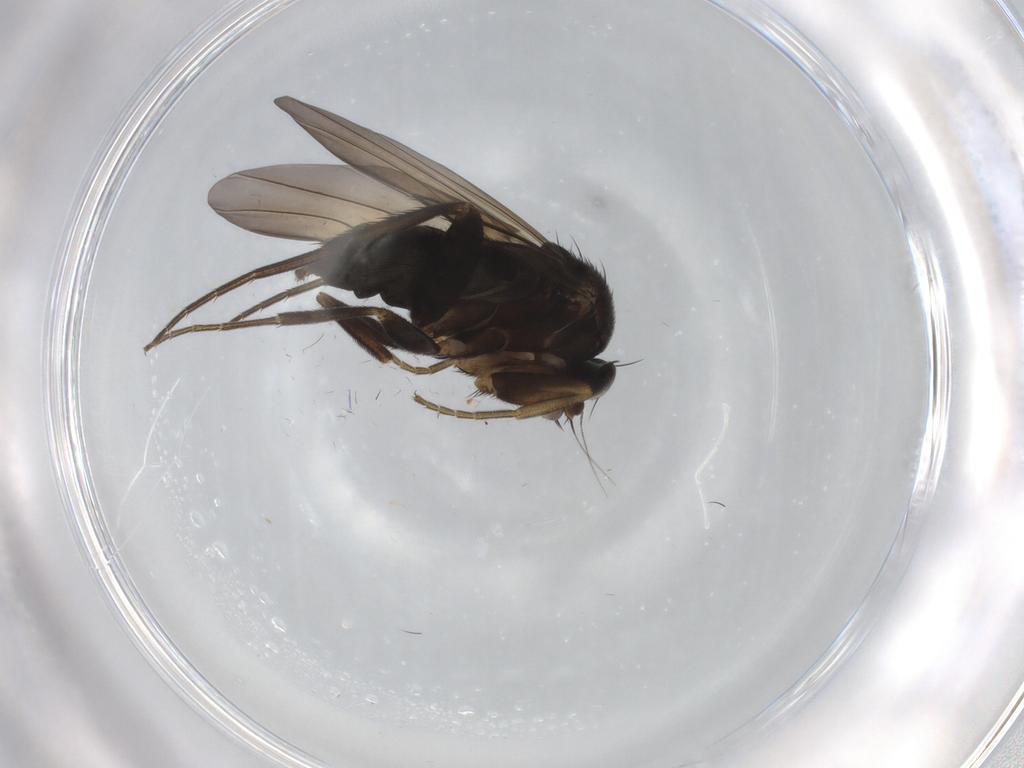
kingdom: Animalia
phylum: Arthropoda
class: Insecta
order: Diptera
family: Phoridae
